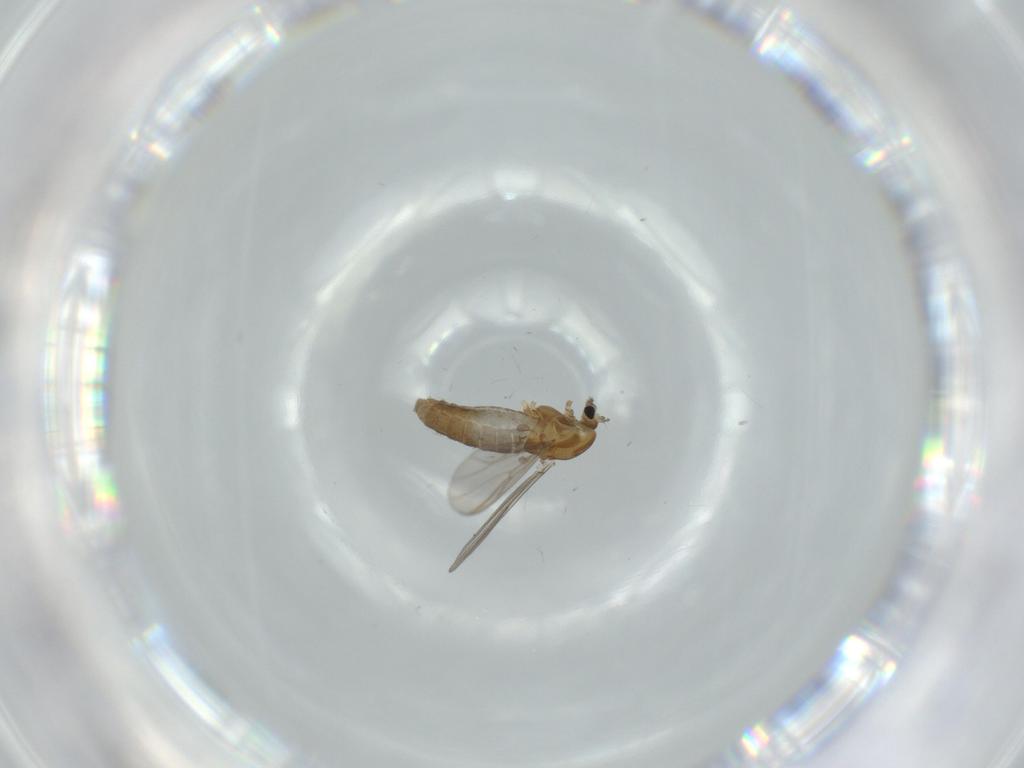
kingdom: Animalia
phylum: Arthropoda
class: Insecta
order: Diptera
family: Chironomidae
